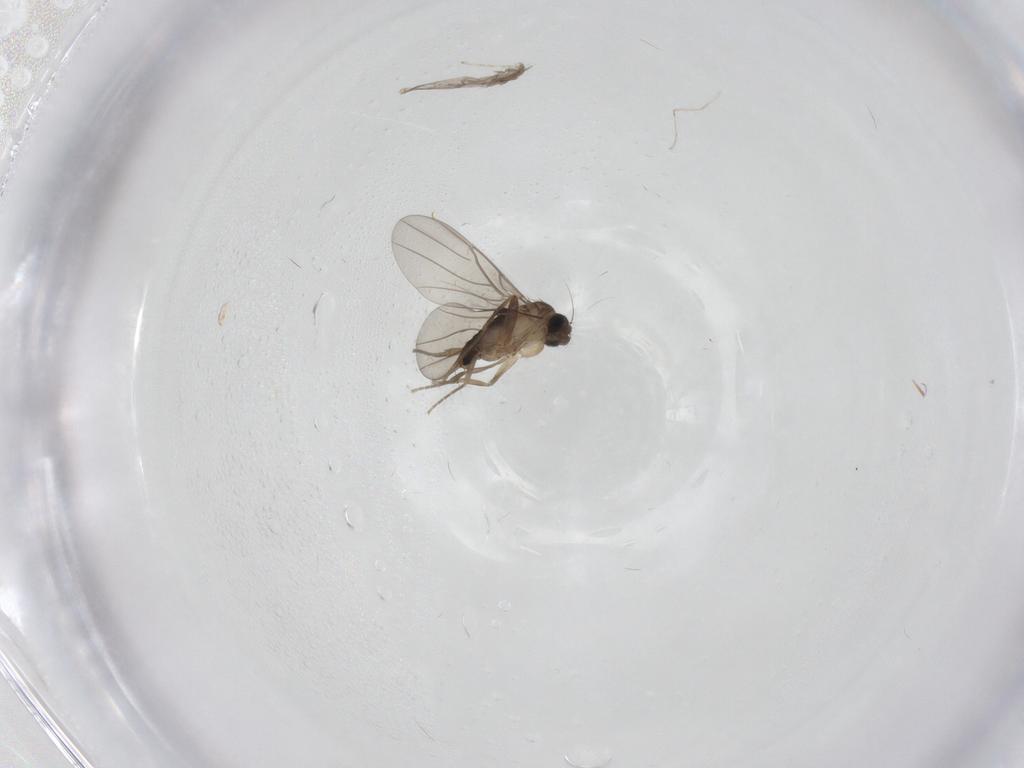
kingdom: Animalia
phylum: Arthropoda
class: Insecta
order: Diptera
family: Phoridae
